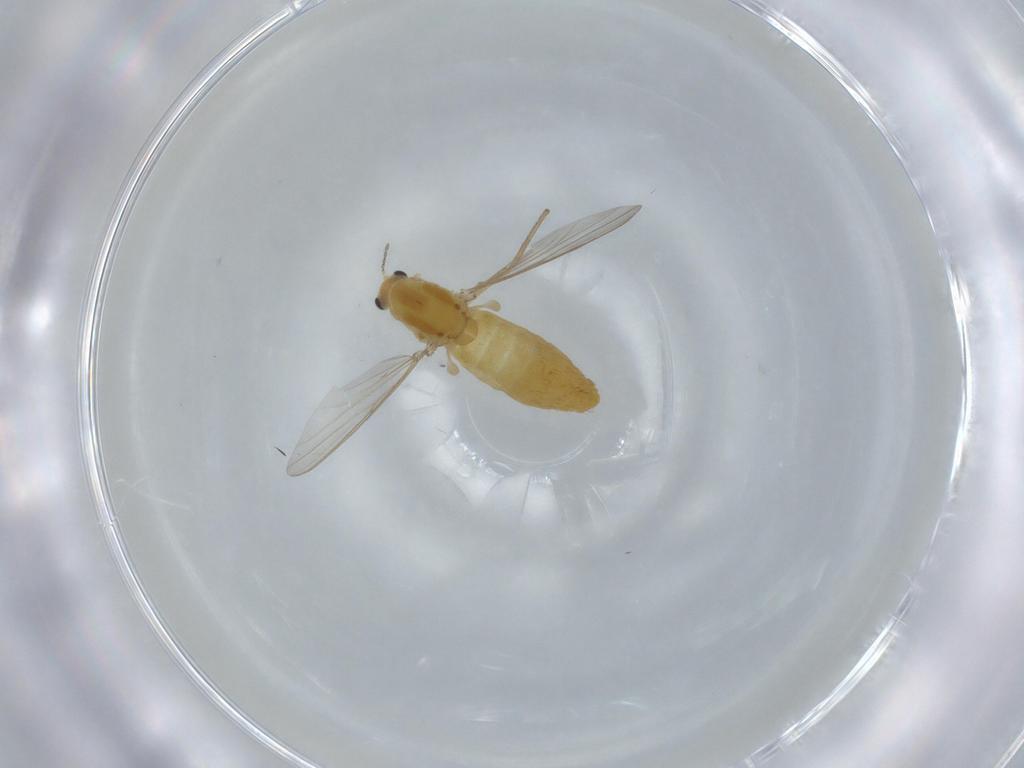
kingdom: Animalia
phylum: Arthropoda
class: Insecta
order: Diptera
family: Chironomidae
